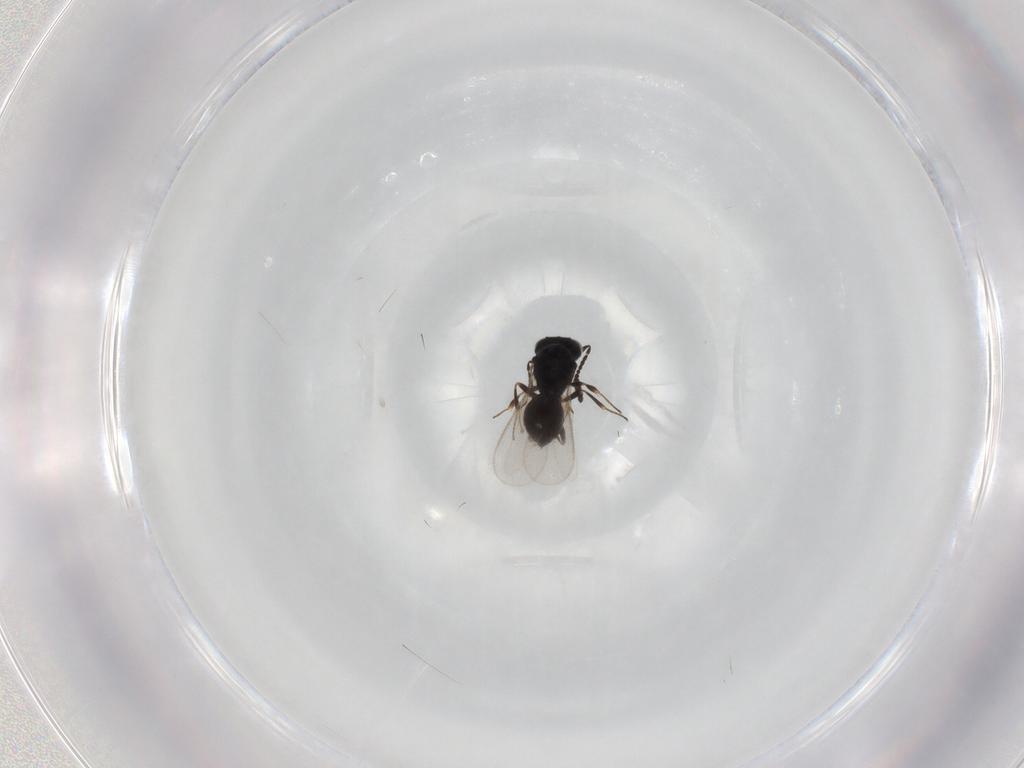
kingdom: Animalia
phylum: Arthropoda
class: Insecta
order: Hymenoptera
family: Scelionidae
